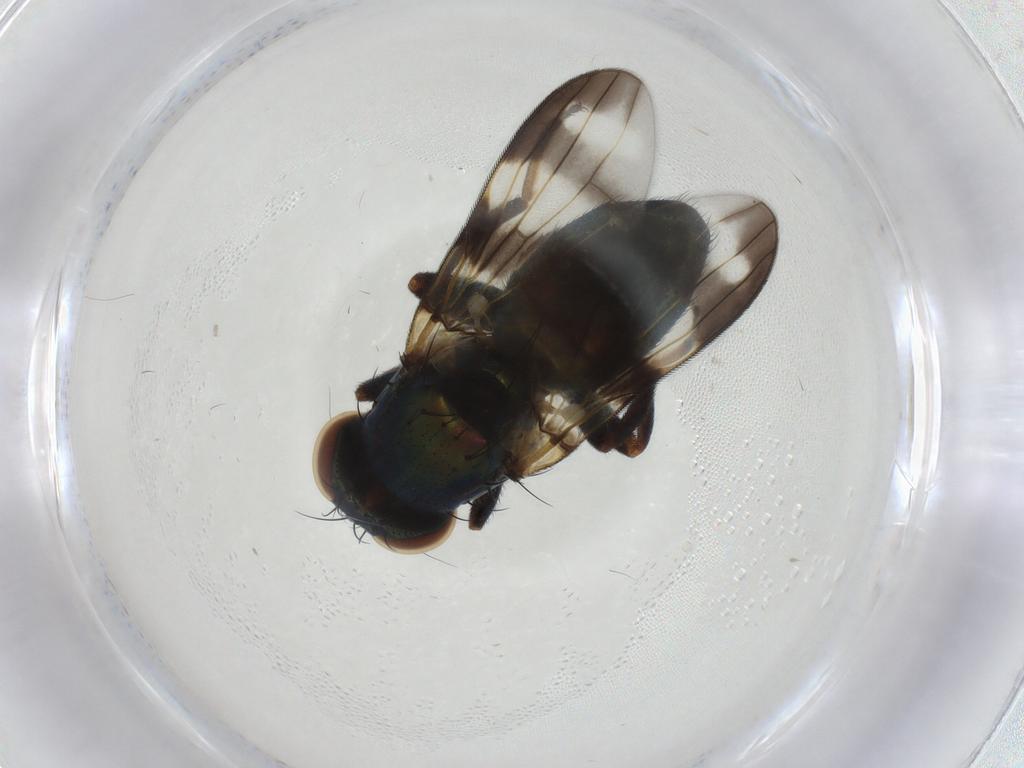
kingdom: Animalia
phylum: Arthropoda
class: Insecta
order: Diptera
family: Ulidiidae
